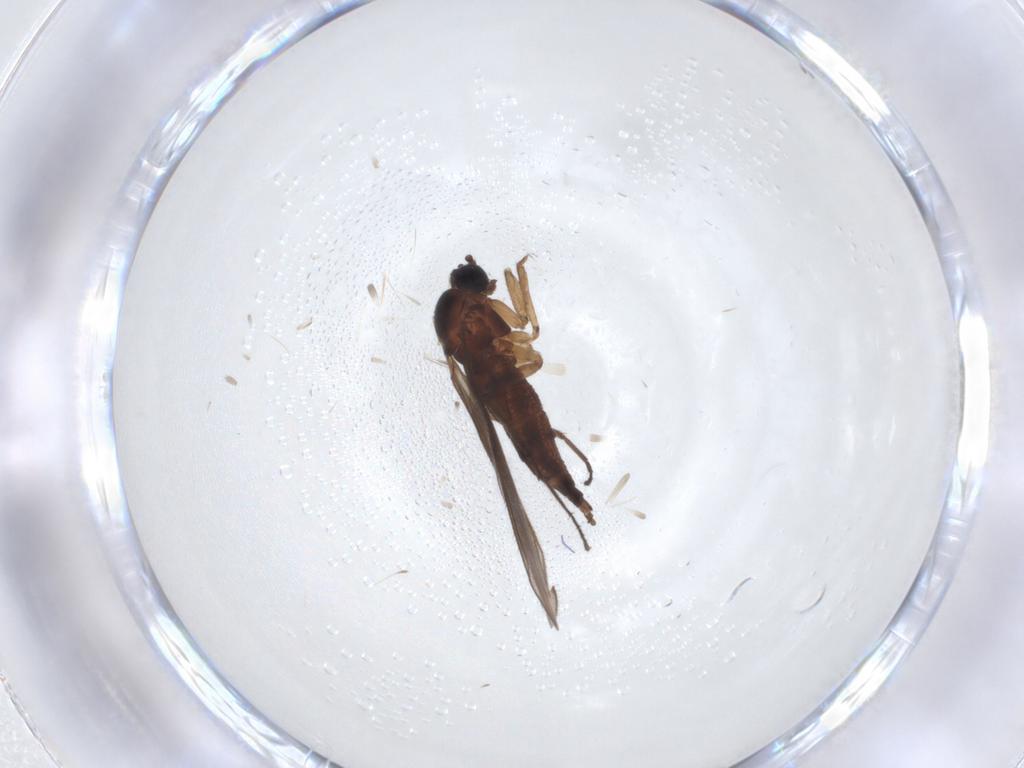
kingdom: Animalia
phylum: Arthropoda
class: Insecta
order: Diptera
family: Sciaridae
